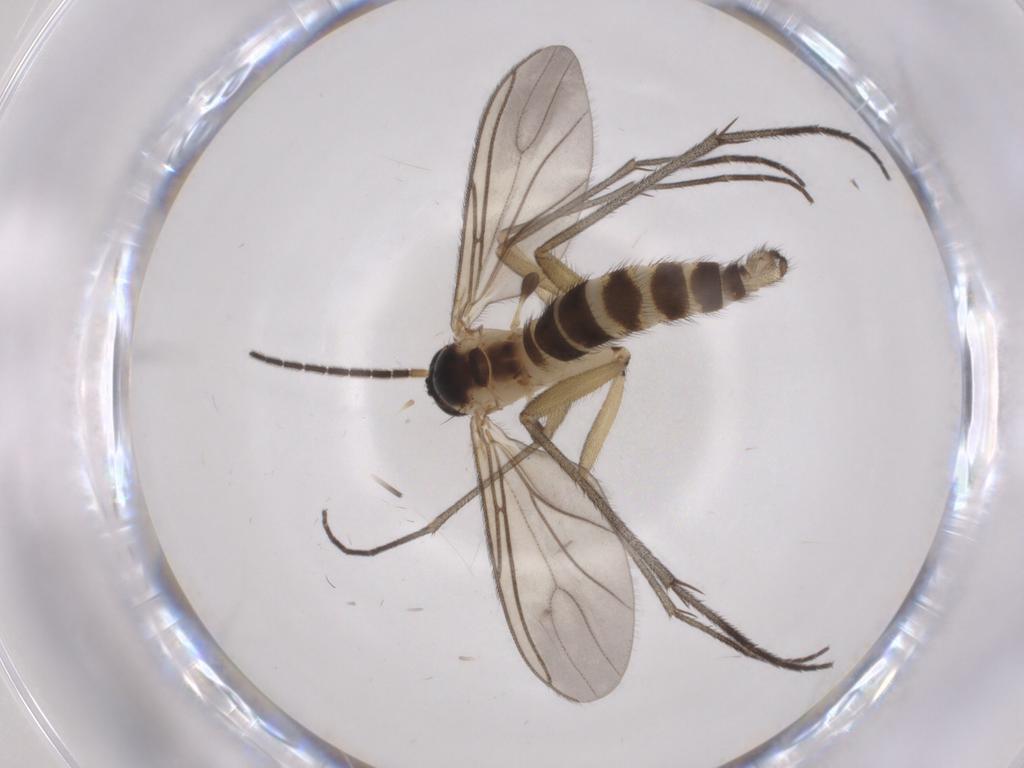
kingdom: Animalia
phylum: Arthropoda
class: Insecta
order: Diptera
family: Sciaridae
